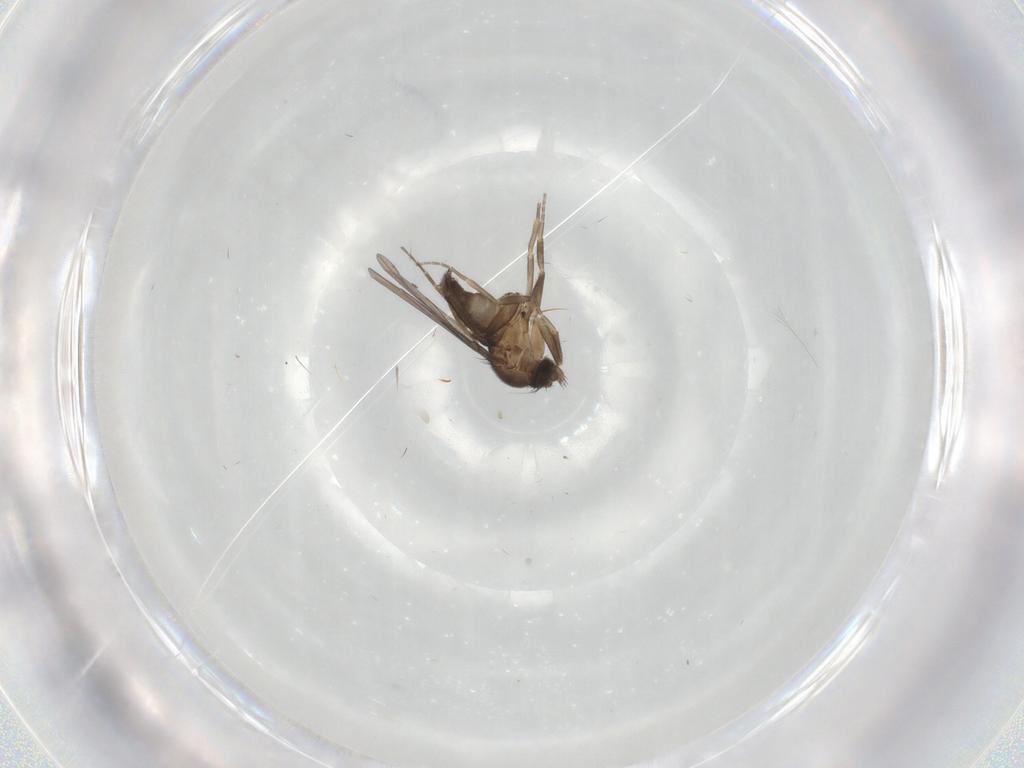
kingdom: Animalia
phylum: Arthropoda
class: Insecta
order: Diptera
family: Phoridae
